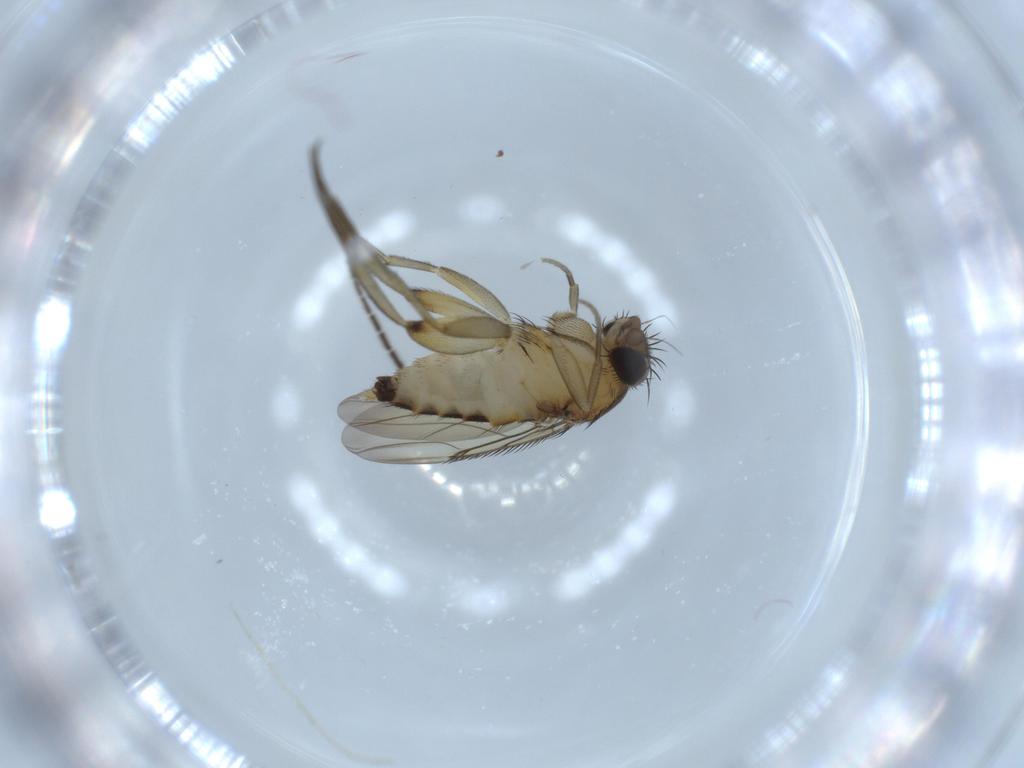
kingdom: Animalia
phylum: Arthropoda
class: Insecta
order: Diptera
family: Phoridae
